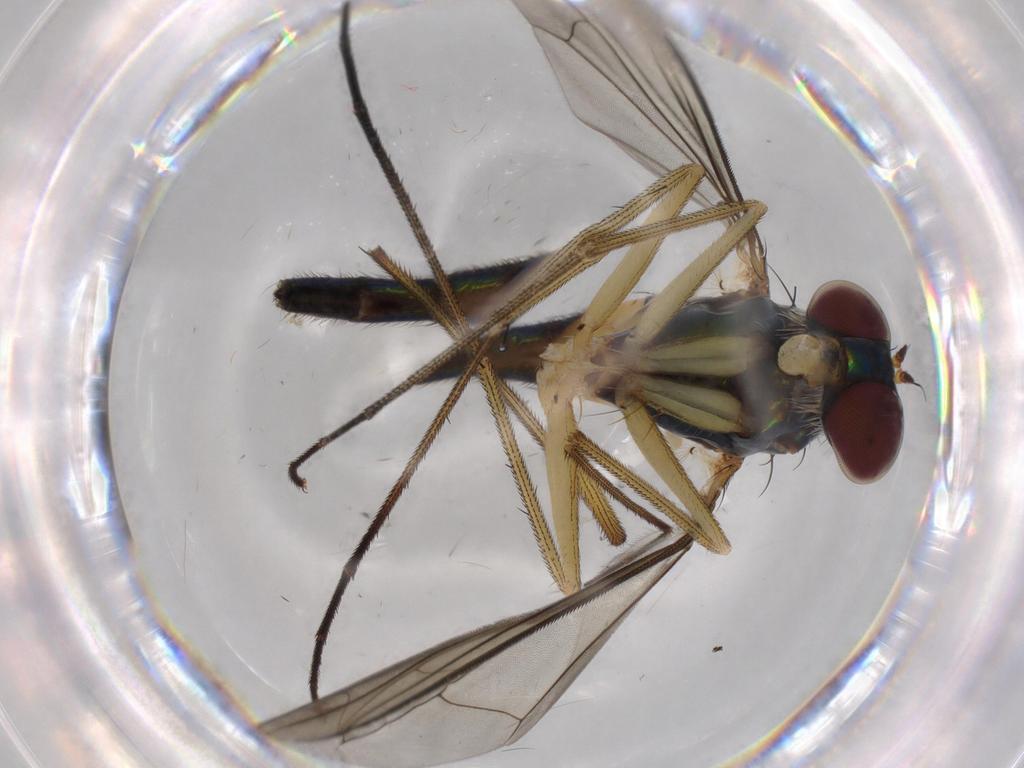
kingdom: Animalia
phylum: Arthropoda
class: Insecta
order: Diptera
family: Dolichopodidae
